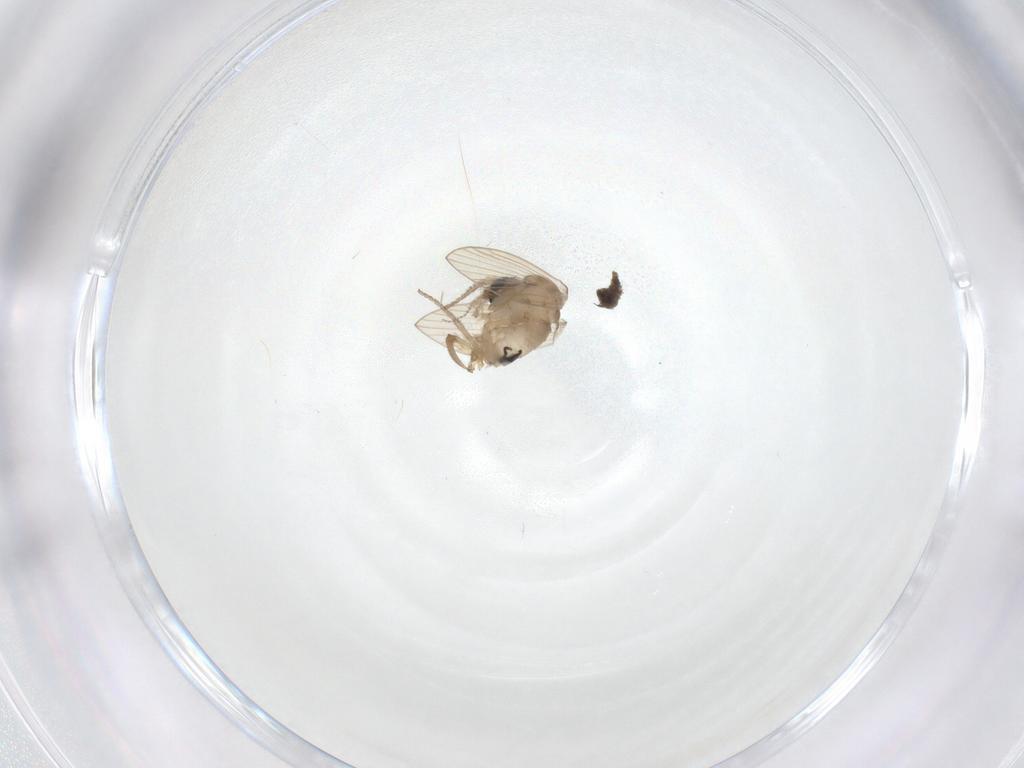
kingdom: Animalia
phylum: Arthropoda
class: Insecta
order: Diptera
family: Psychodidae
